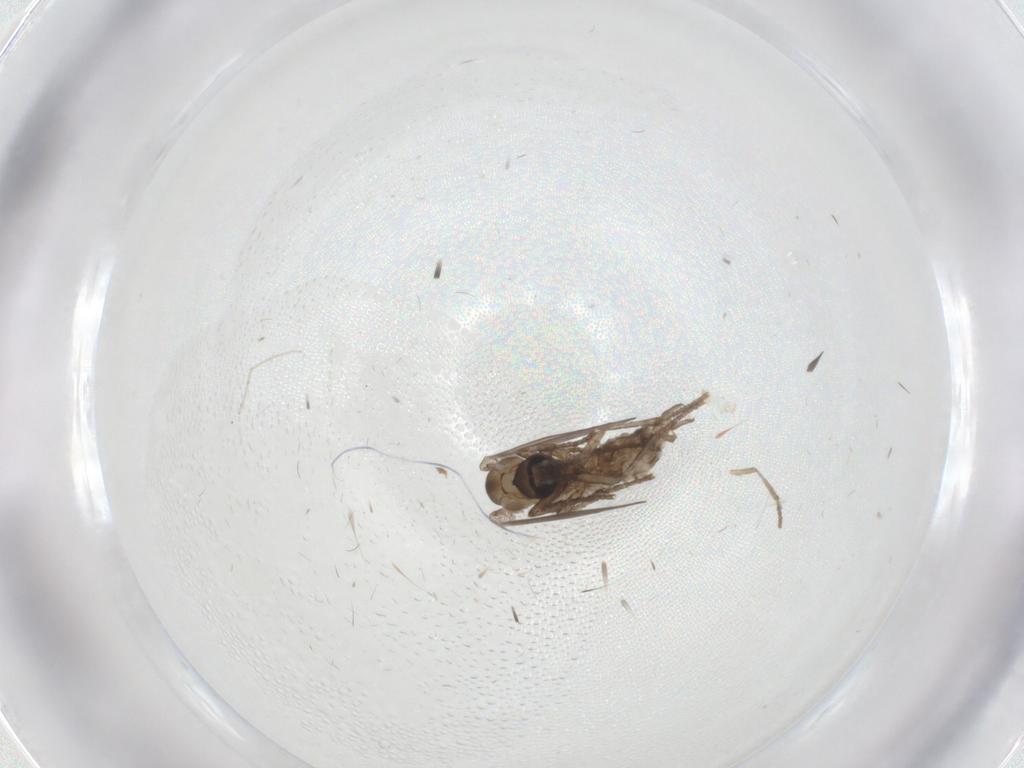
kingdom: Animalia
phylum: Arthropoda
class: Insecta
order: Diptera
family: Psychodidae
